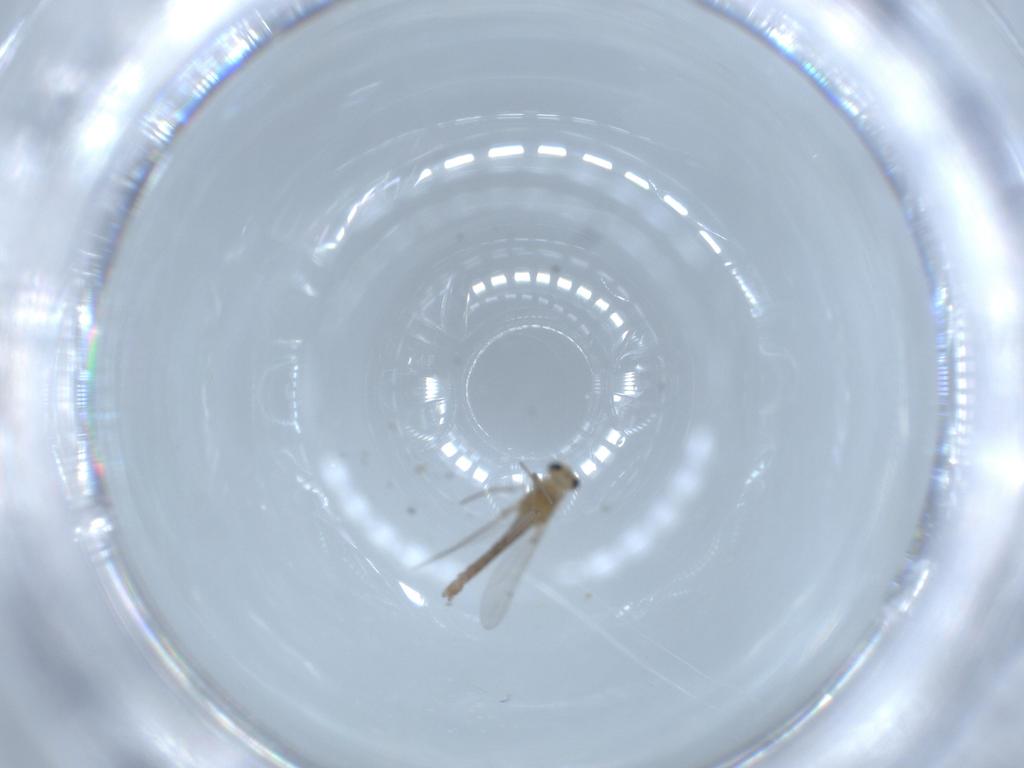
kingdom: Animalia
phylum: Arthropoda
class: Insecta
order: Diptera
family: Chironomidae
